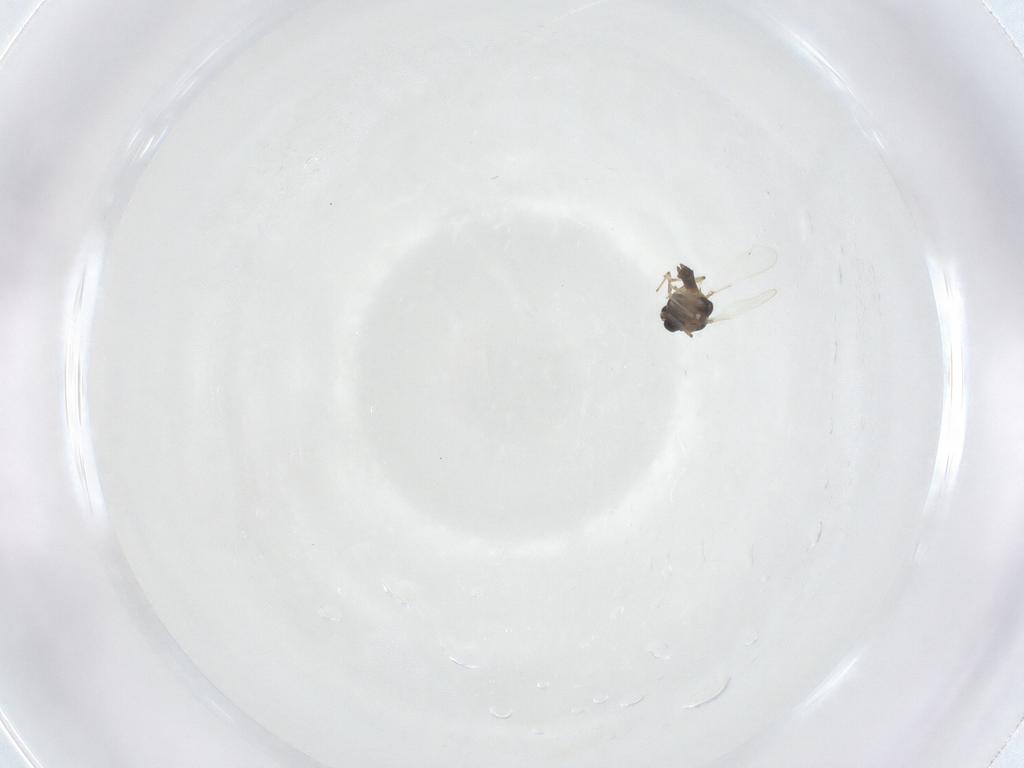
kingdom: Animalia
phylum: Arthropoda
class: Insecta
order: Diptera
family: Chironomidae
